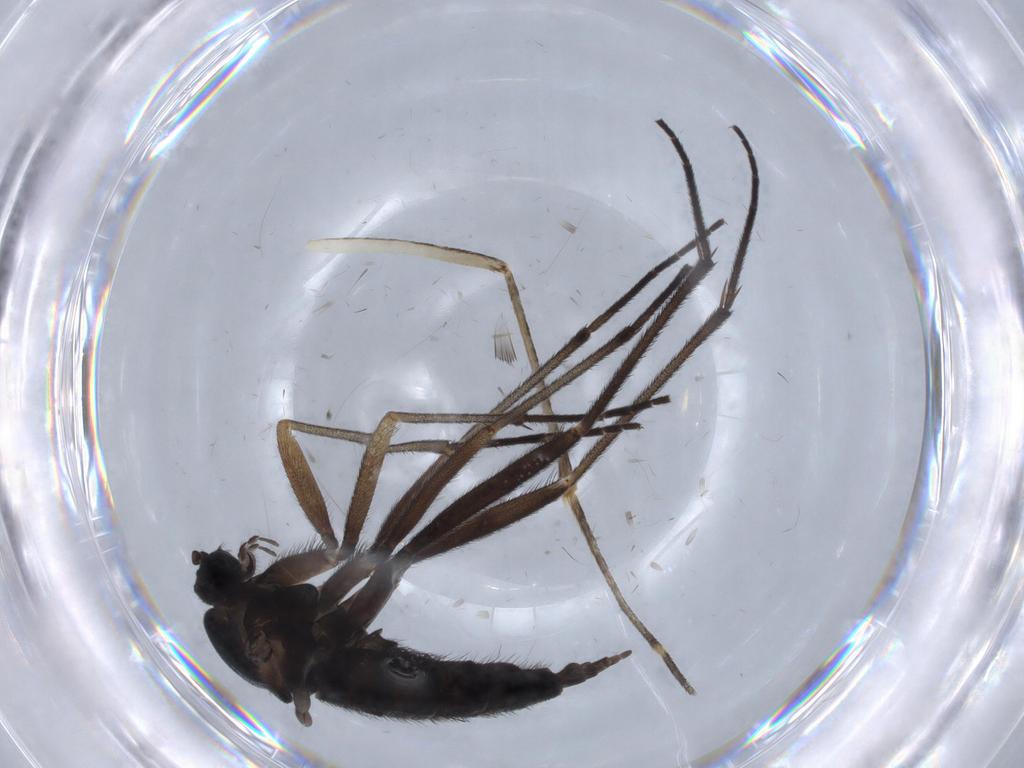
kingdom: Animalia
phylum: Arthropoda
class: Insecta
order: Diptera
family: Sciaridae
